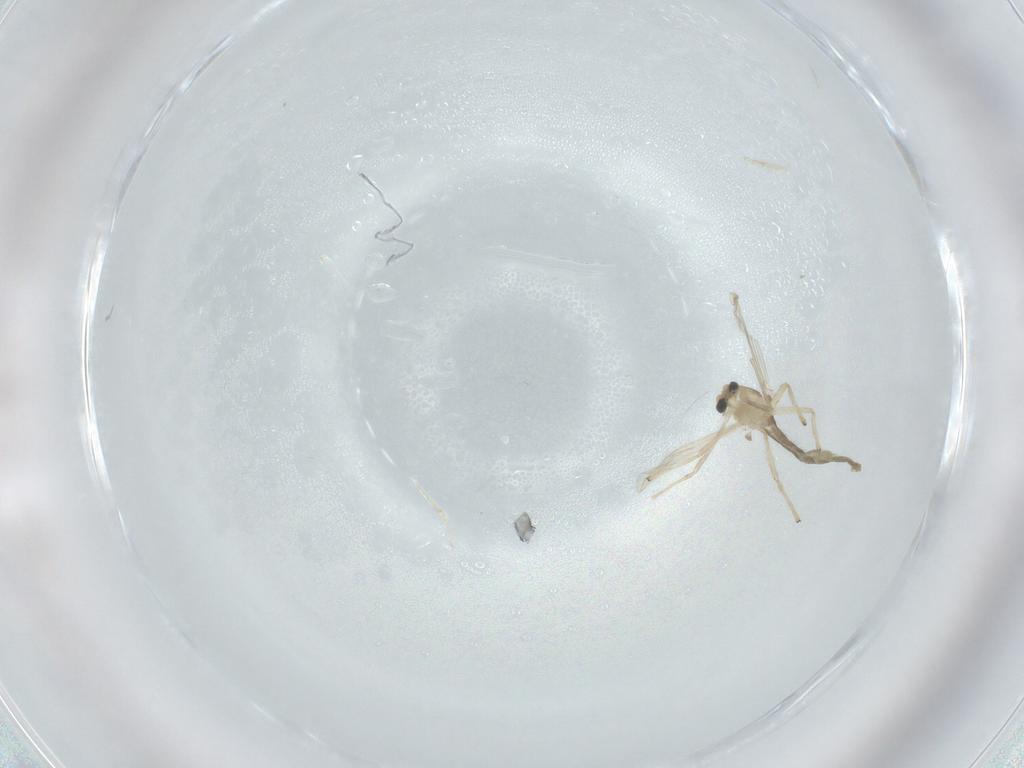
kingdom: Animalia
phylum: Arthropoda
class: Insecta
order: Diptera
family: Chironomidae
